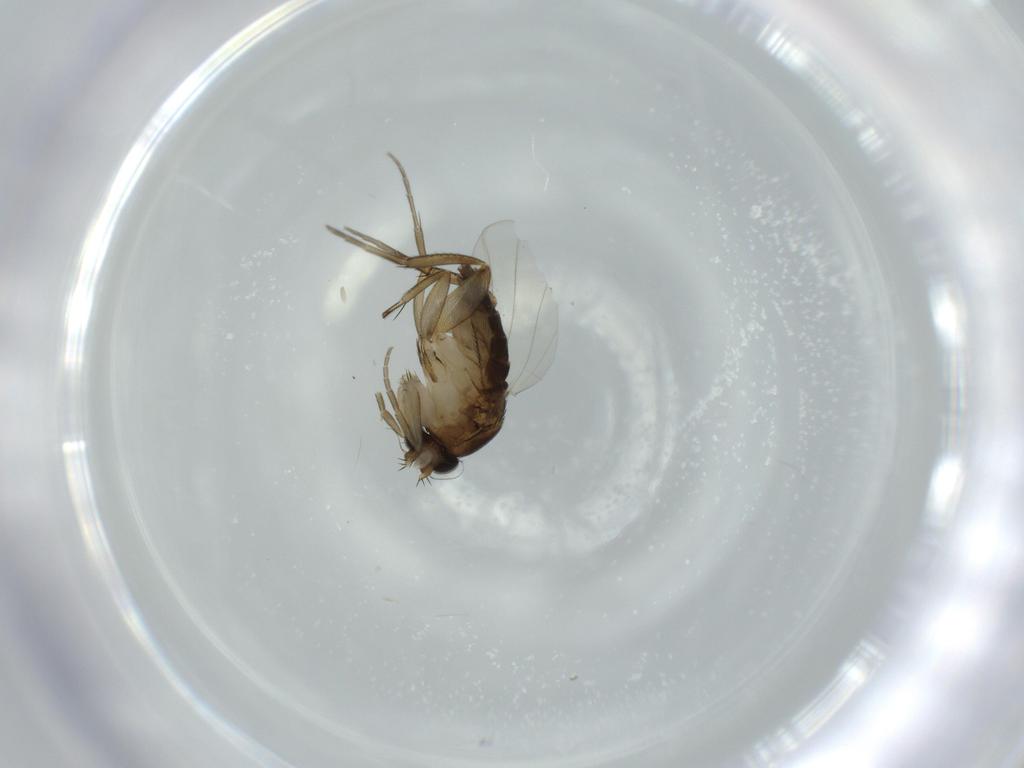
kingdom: Animalia
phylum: Arthropoda
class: Insecta
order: Diptera
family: Phoridae
